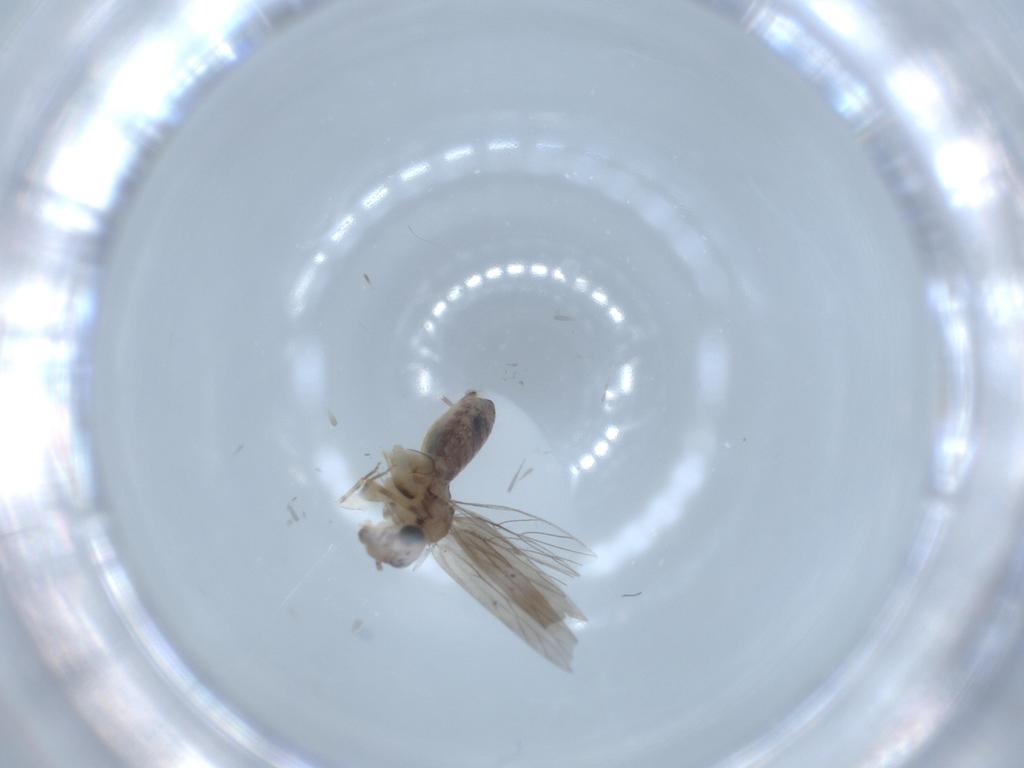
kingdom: Animalia
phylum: Arthropoda
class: Insecta
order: Psocodea
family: Lepidopsocidae
